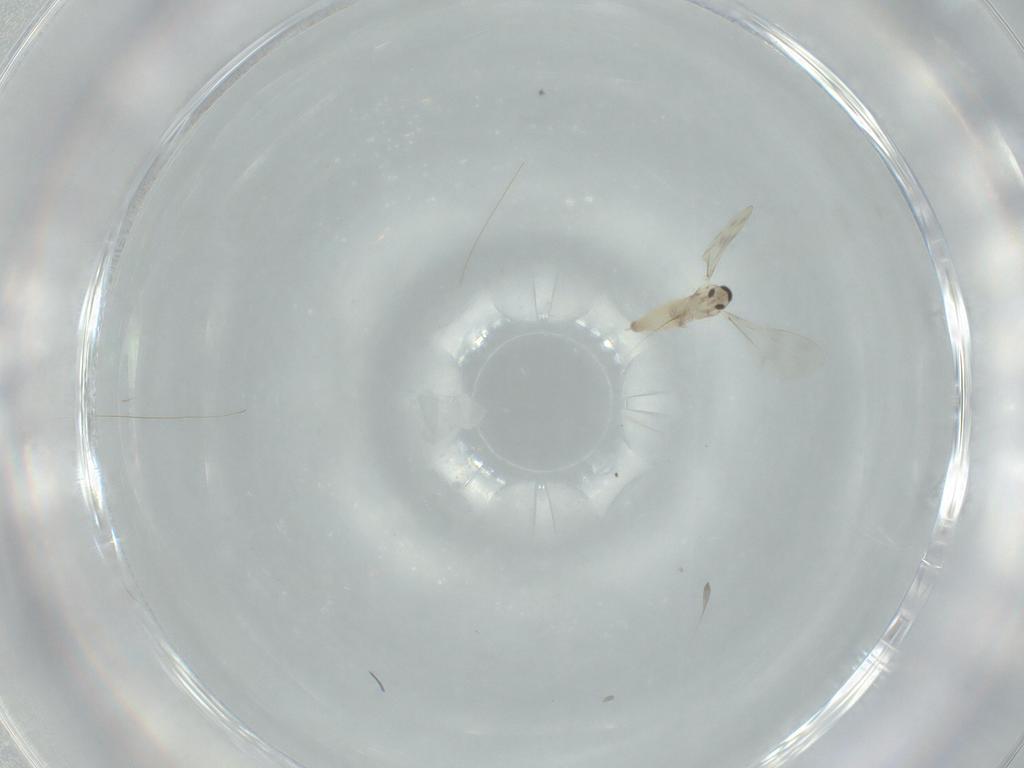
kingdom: Animalia
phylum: Arthropoda
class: Insecta
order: Diptera
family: Cecidomyiidae
